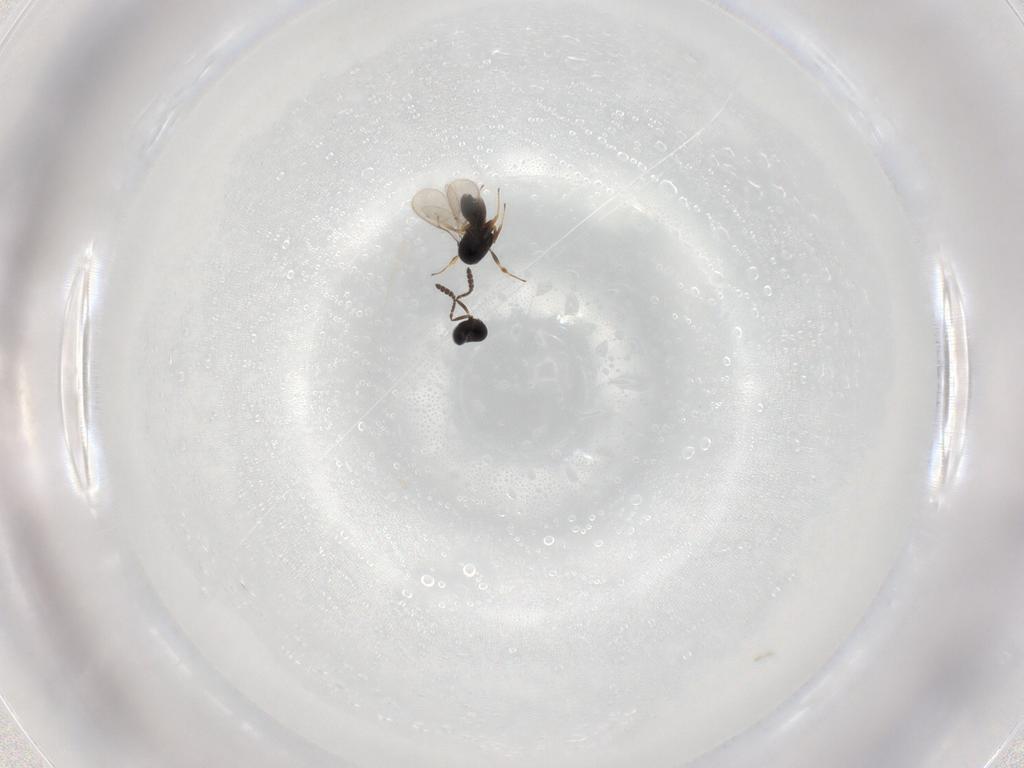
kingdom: Animalia
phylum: Arthropoda
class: Insecta
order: Hymenoptera
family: Scelionidae
